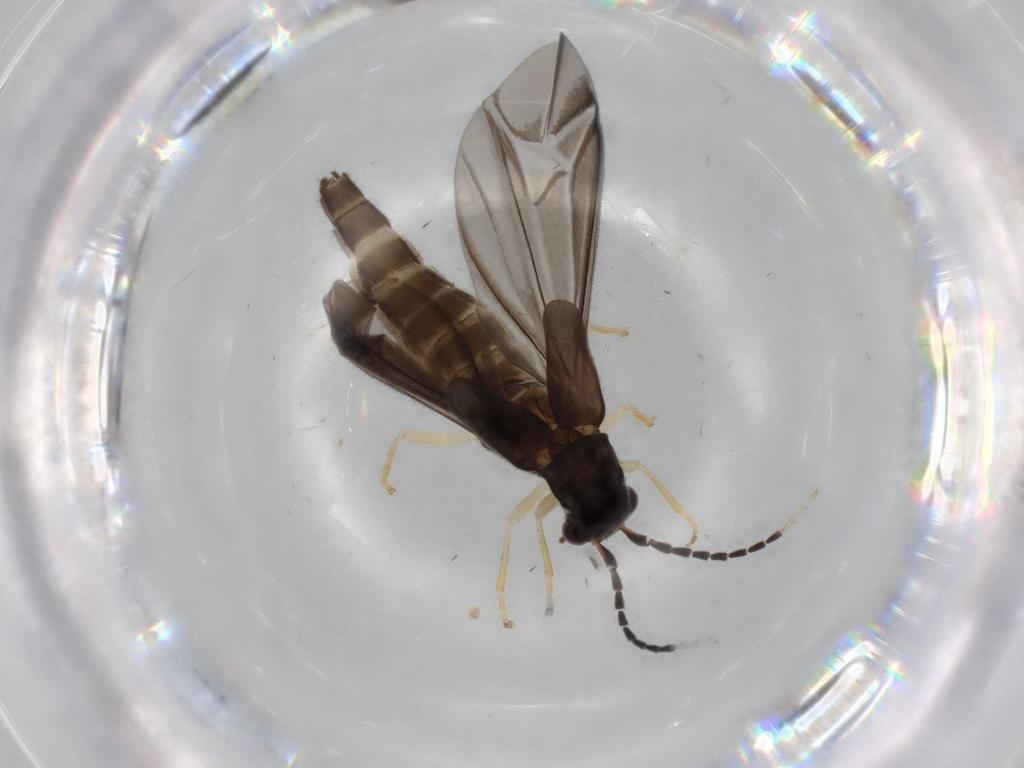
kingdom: Animalia
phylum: Arthropoda
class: Insecta
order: Coleoptera
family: Cantharidae
